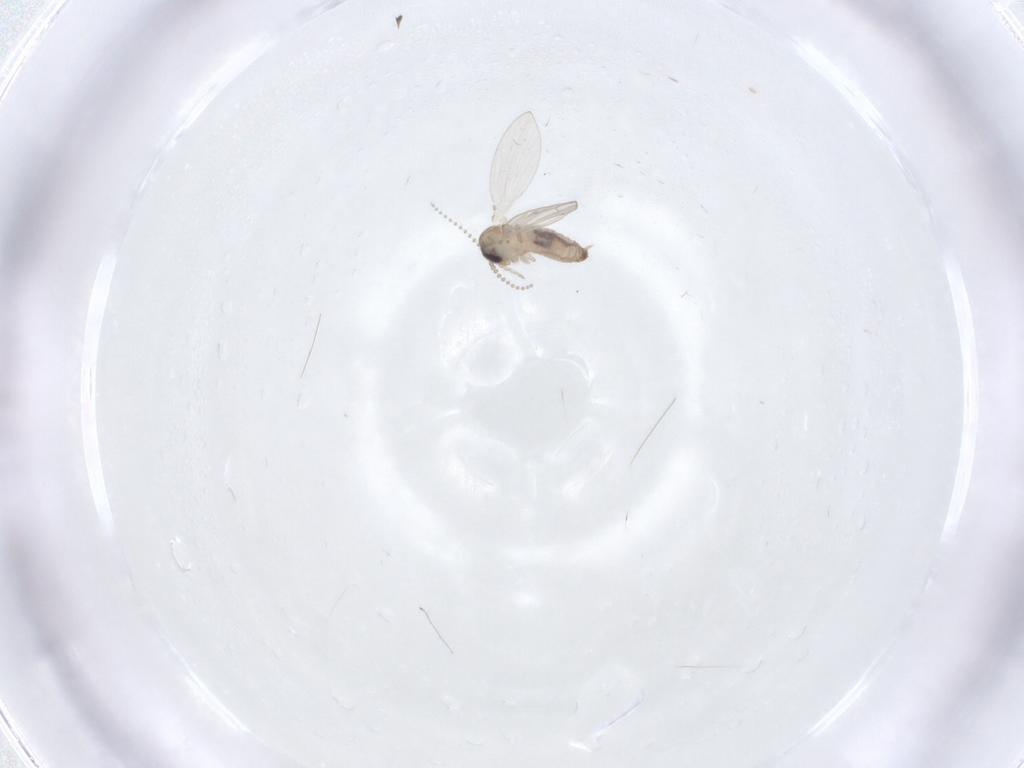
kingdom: Animalia
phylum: Arthropoda
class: Insecta
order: Diptera
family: Psychodidae
